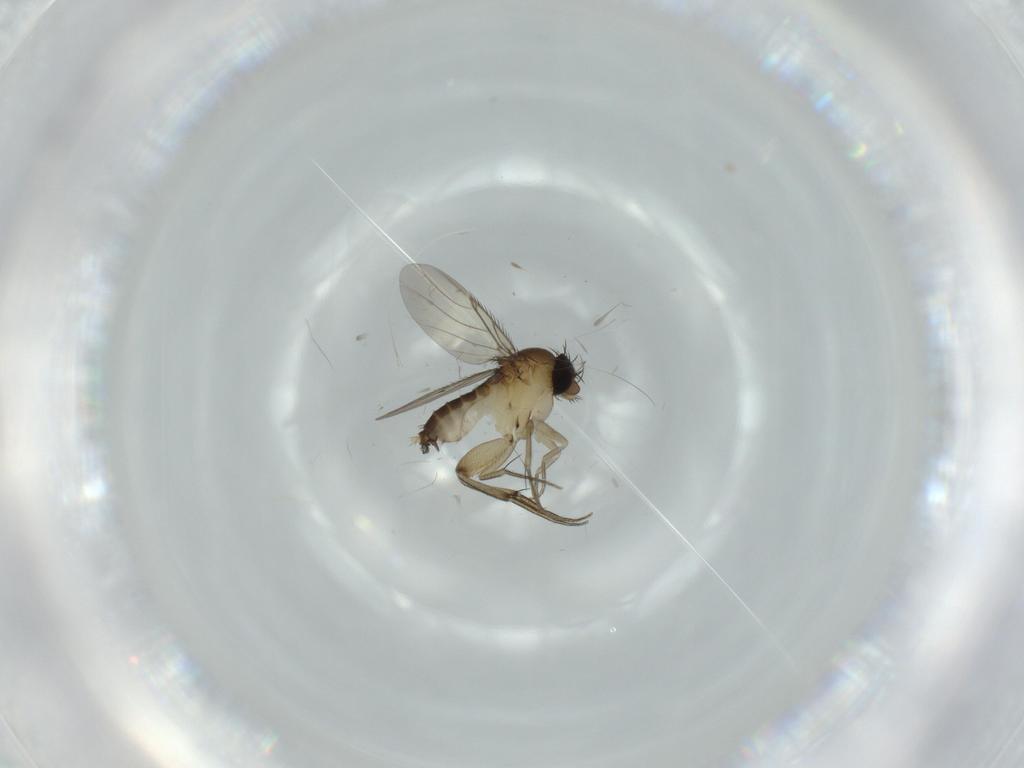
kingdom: Animalia
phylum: Arthropoda
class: Insecta
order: Diptera
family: Phoridae
